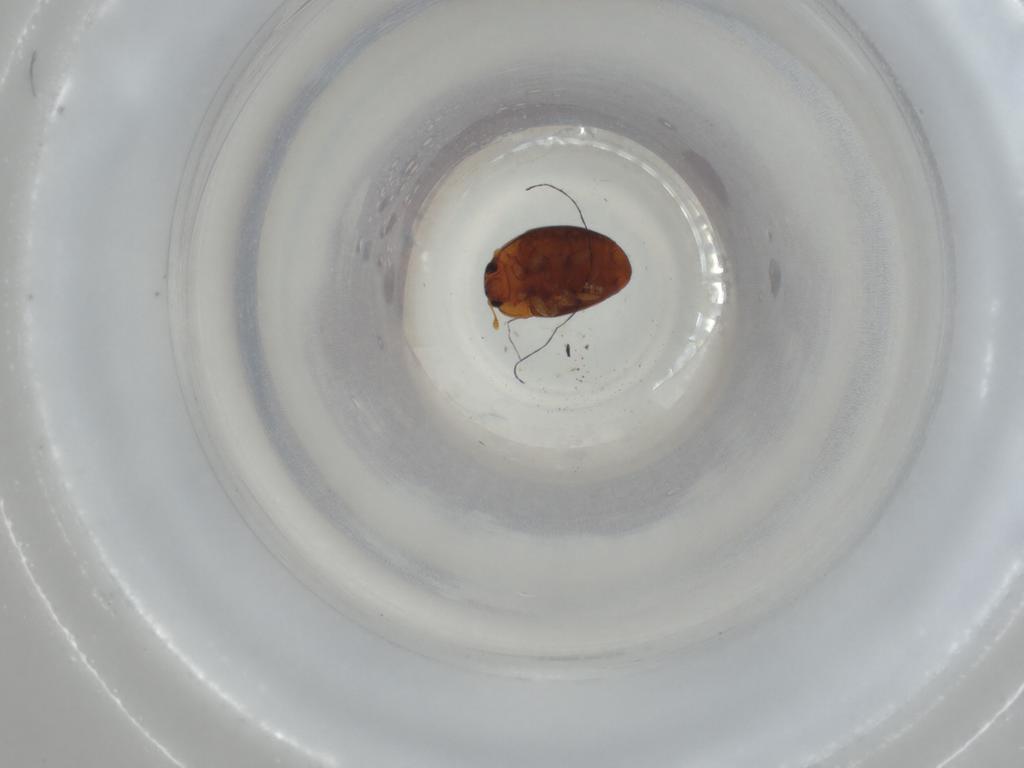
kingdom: Animalia
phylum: Arthropoda
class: Insecta
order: Coleoptera
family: Phalacridae
